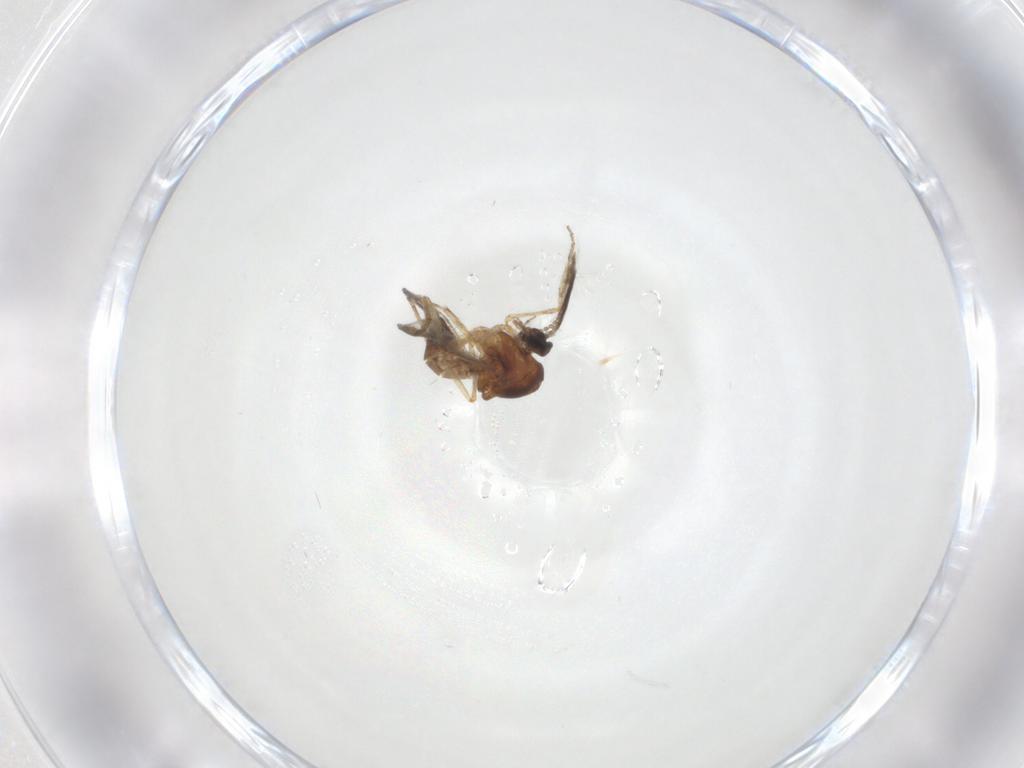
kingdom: Animalia
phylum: Arthropoda
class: Insecta
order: Diptera
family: Ceratopogonidae
